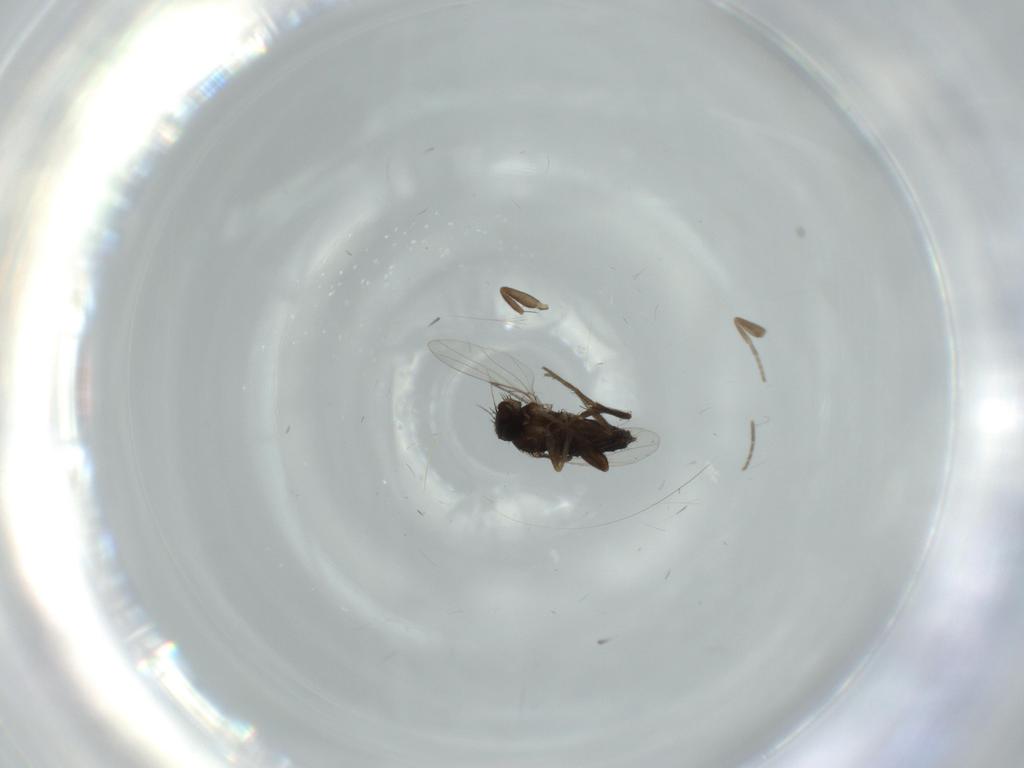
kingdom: Animalia
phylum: Arthropoda
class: Insecta
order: Diptera
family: Phoridae
